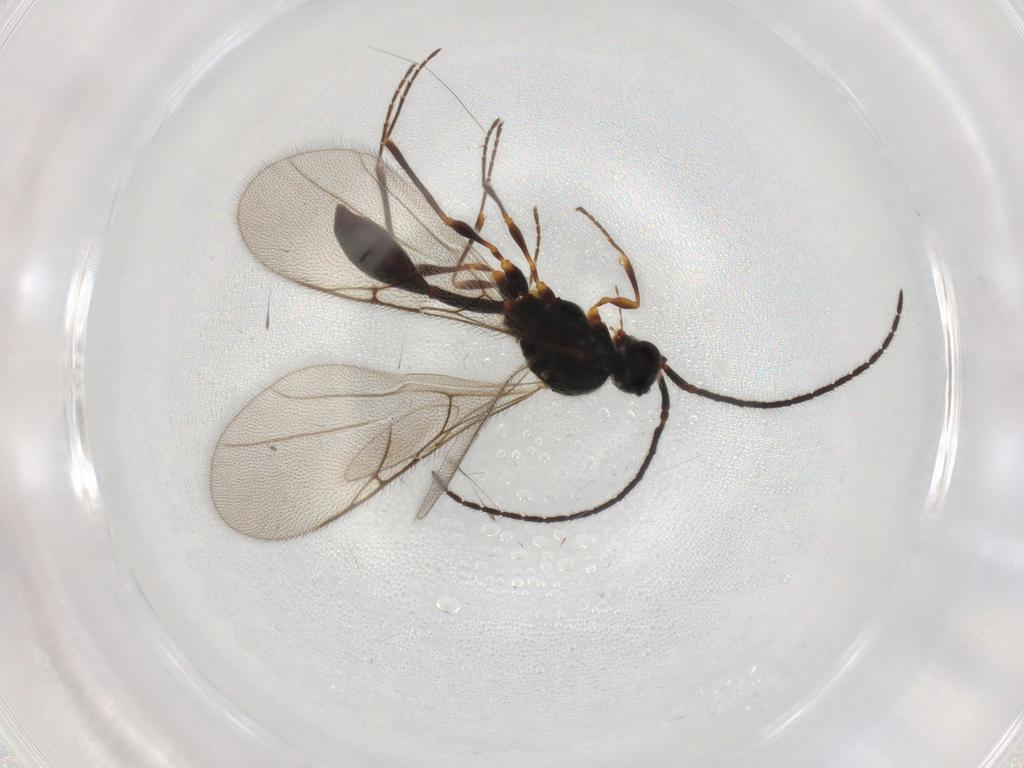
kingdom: Animalia
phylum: Arthropoda
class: Insecta
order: Hymenoptera
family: Diapriidae
